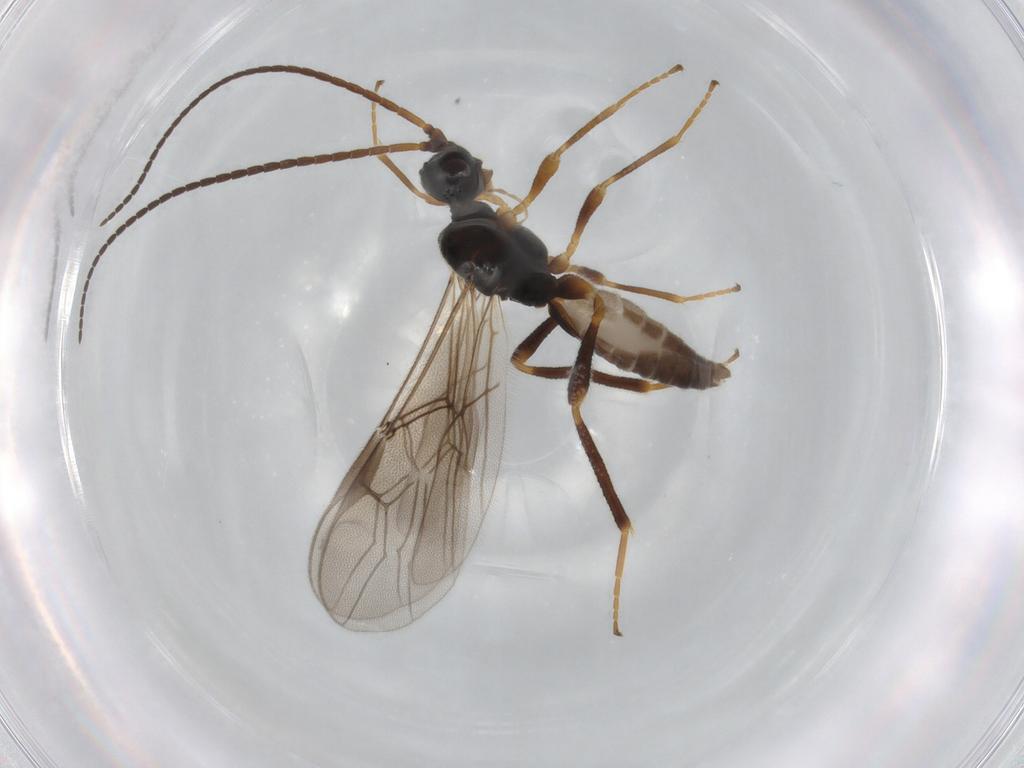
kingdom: Animalia
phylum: Arthropoda
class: Insecta
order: Hymenoptera
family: Braconidae
